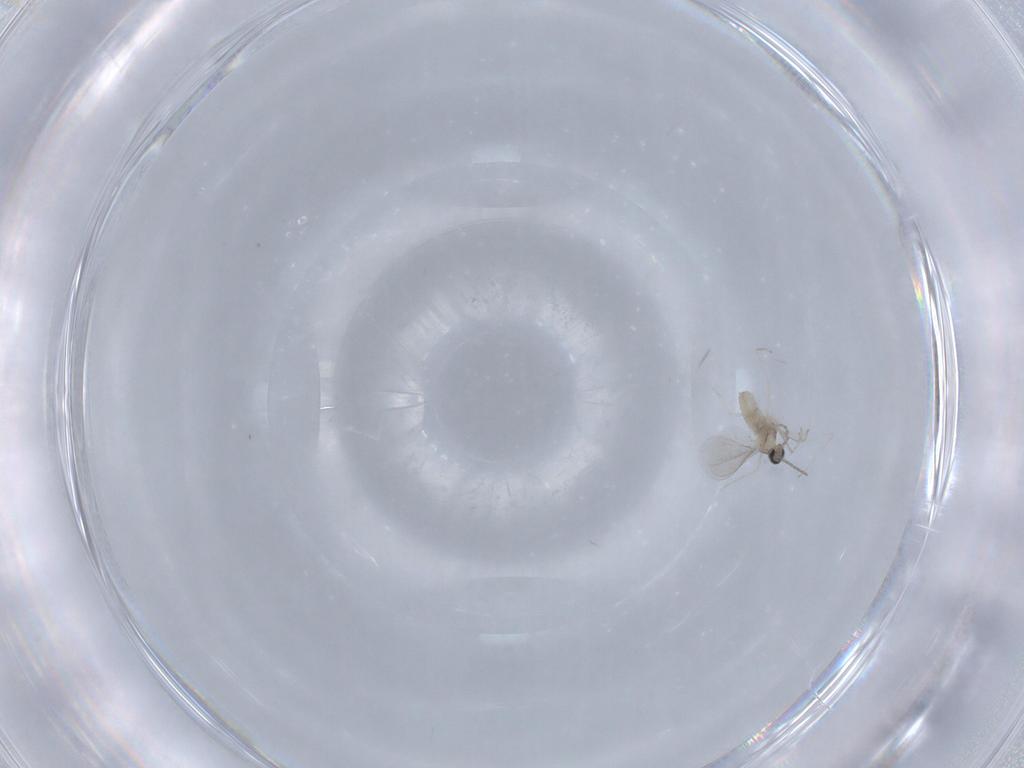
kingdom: Animalia
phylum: Arthropoda
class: Insecta
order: Diptera
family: Cecidomyiidae
